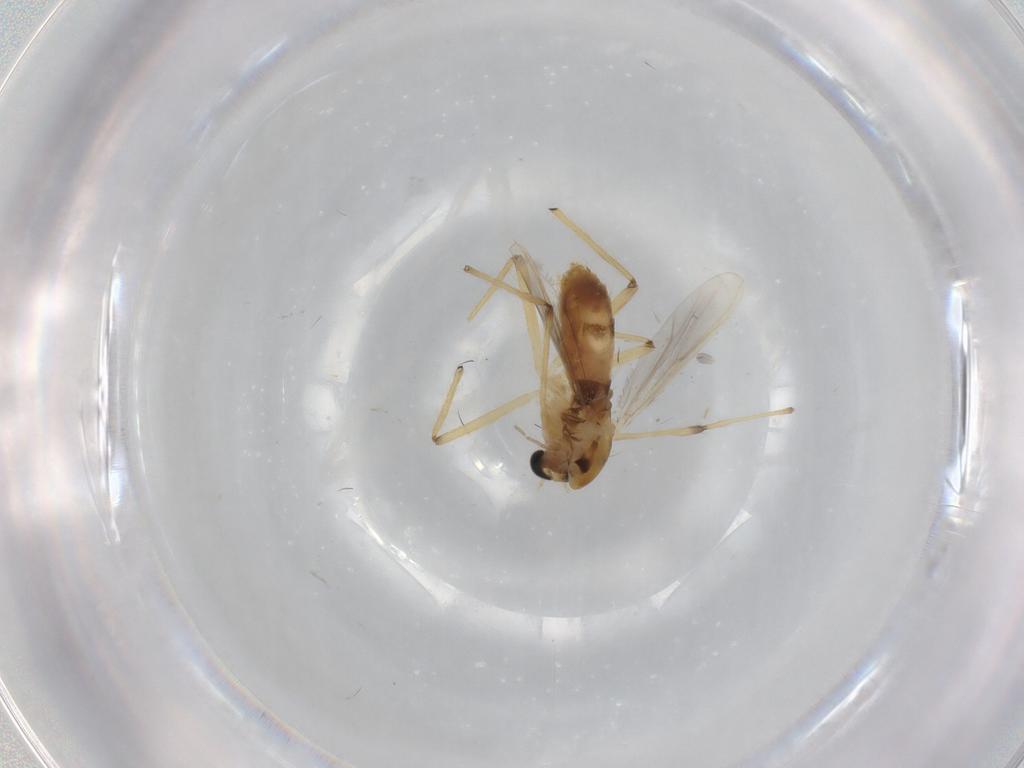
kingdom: Animalia
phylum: Arthropoda
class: Insecta
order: Diptera
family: Chironomidae
